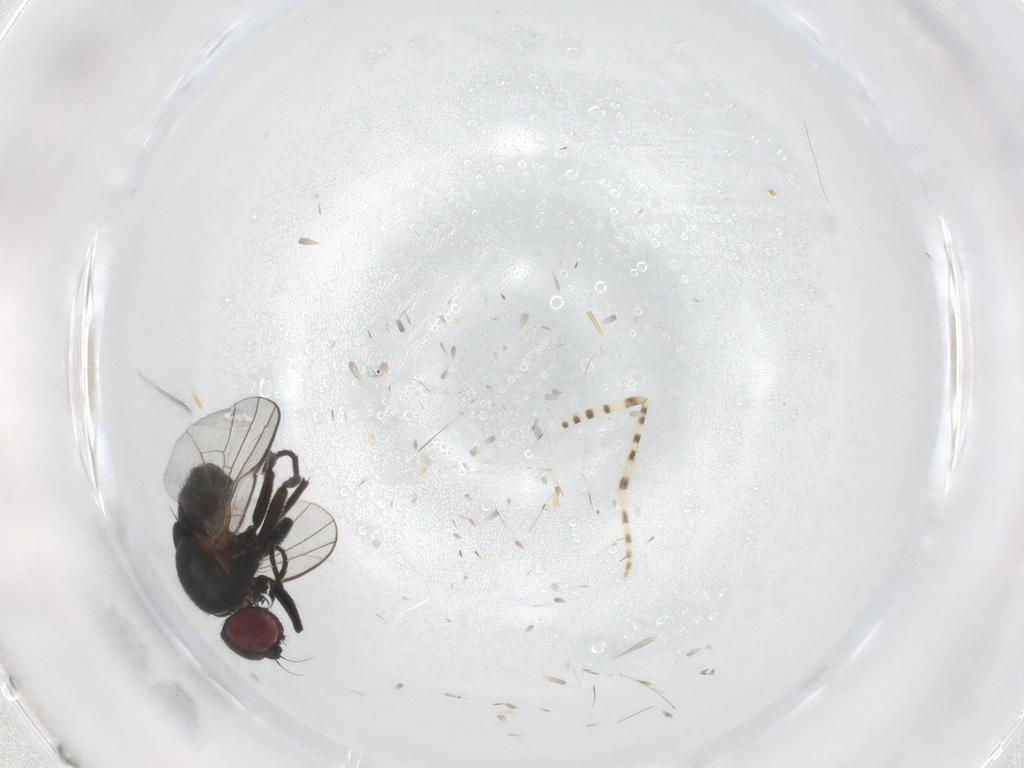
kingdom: Animalia
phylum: Arthropoda
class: Insecta
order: Diptera
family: Agromyzidae
